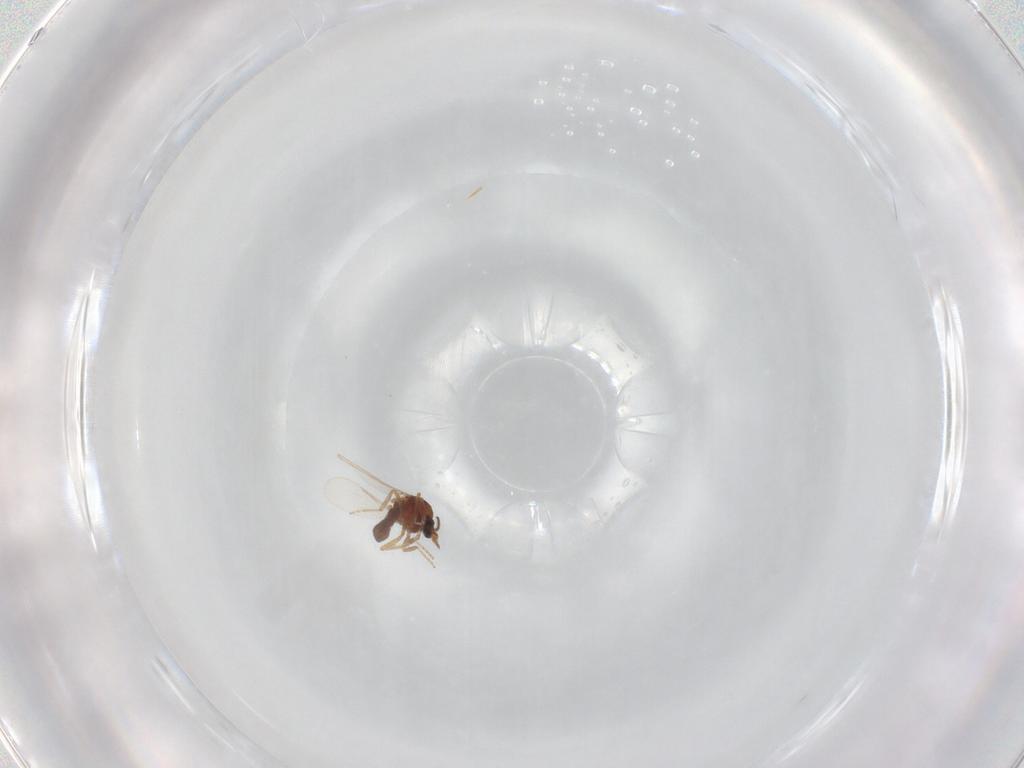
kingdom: Animalia
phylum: Arthropoda
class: Insecta
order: Diptera
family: Ceratopogonidae
